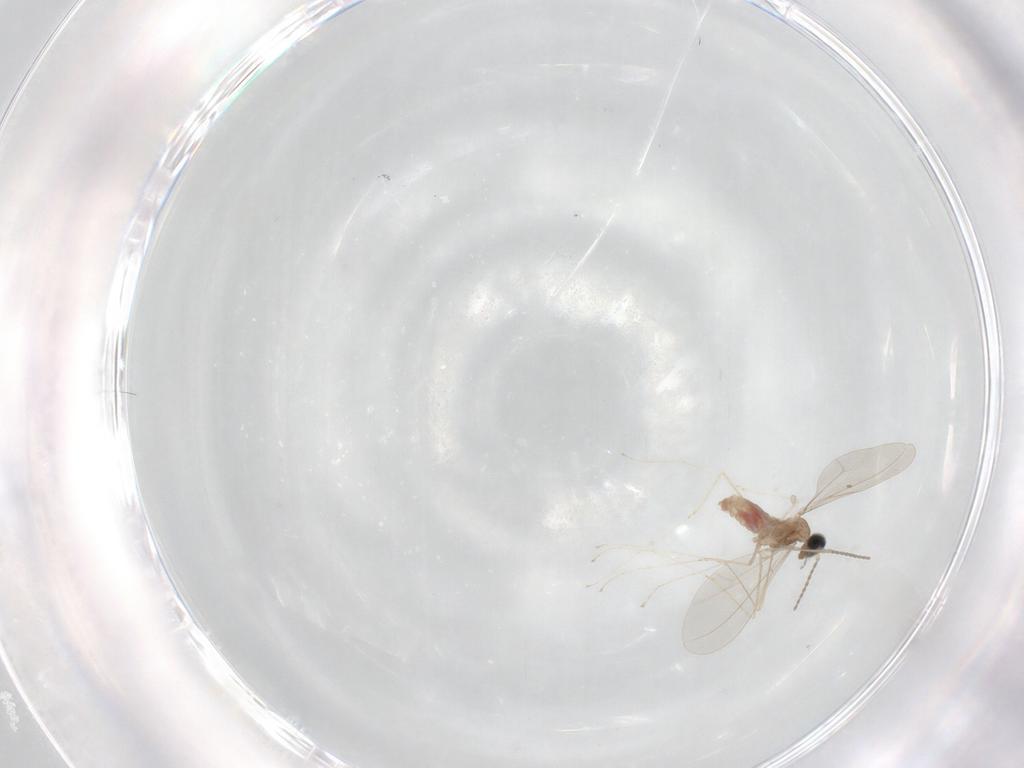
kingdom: Animalia
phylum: Arthropoda
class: Insecta
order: Diptera
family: Cecidomyiidae
